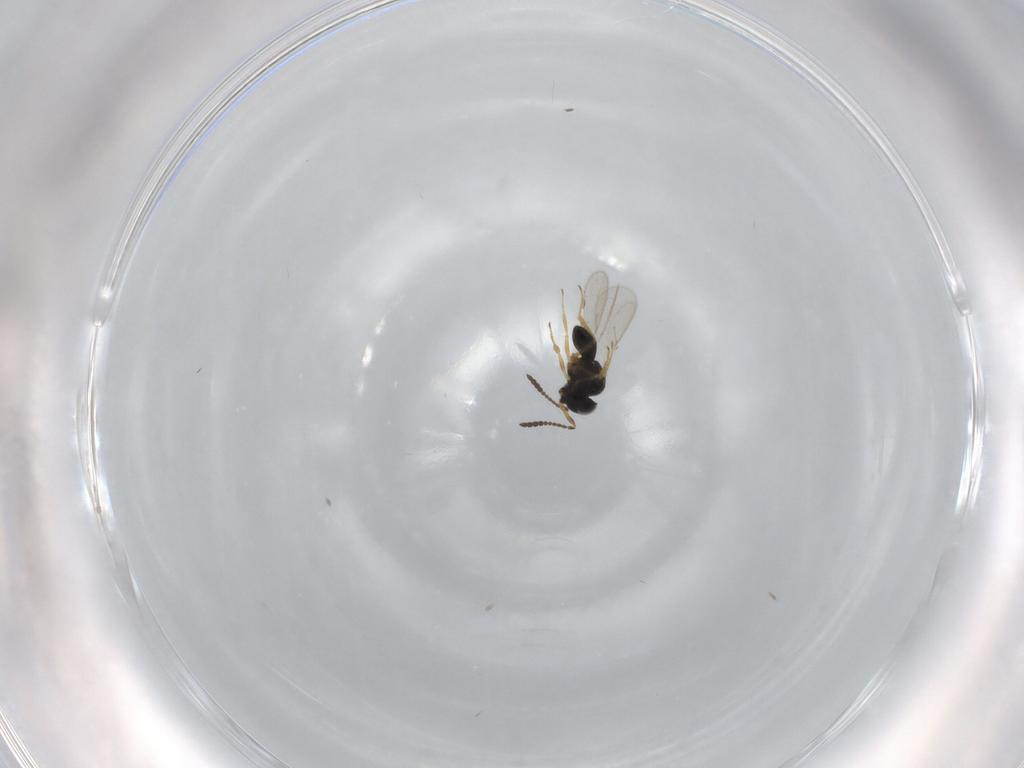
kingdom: Animalia
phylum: Arthropoda
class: Insecta
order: Hymenoptera
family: Scelionidae
